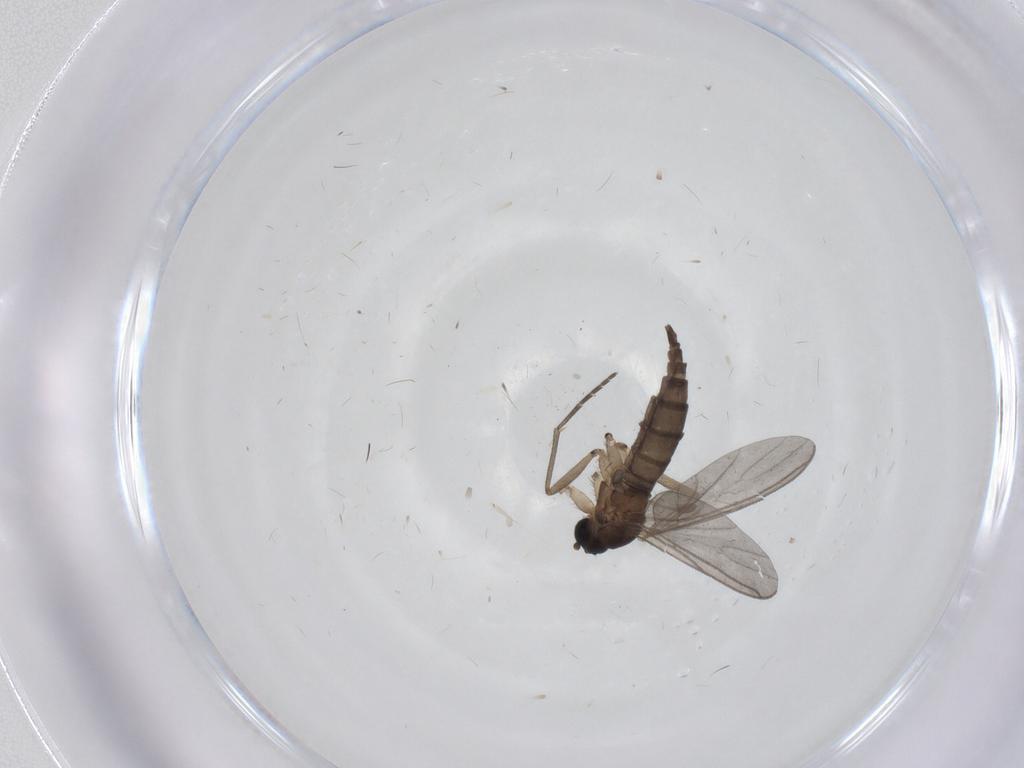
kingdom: Animalia
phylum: Arthropoda
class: Insecta
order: Diptera
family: Sciaridae
